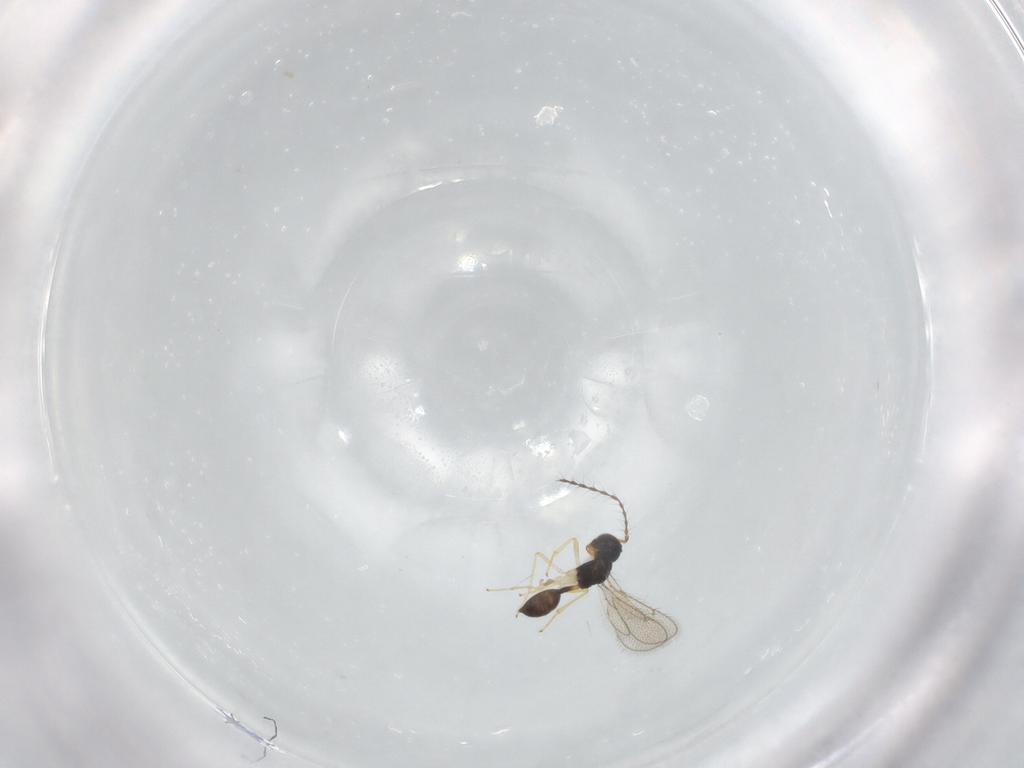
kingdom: Animalia
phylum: Arthropoda
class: Insecta
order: Hymenoptera
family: Diparidae
